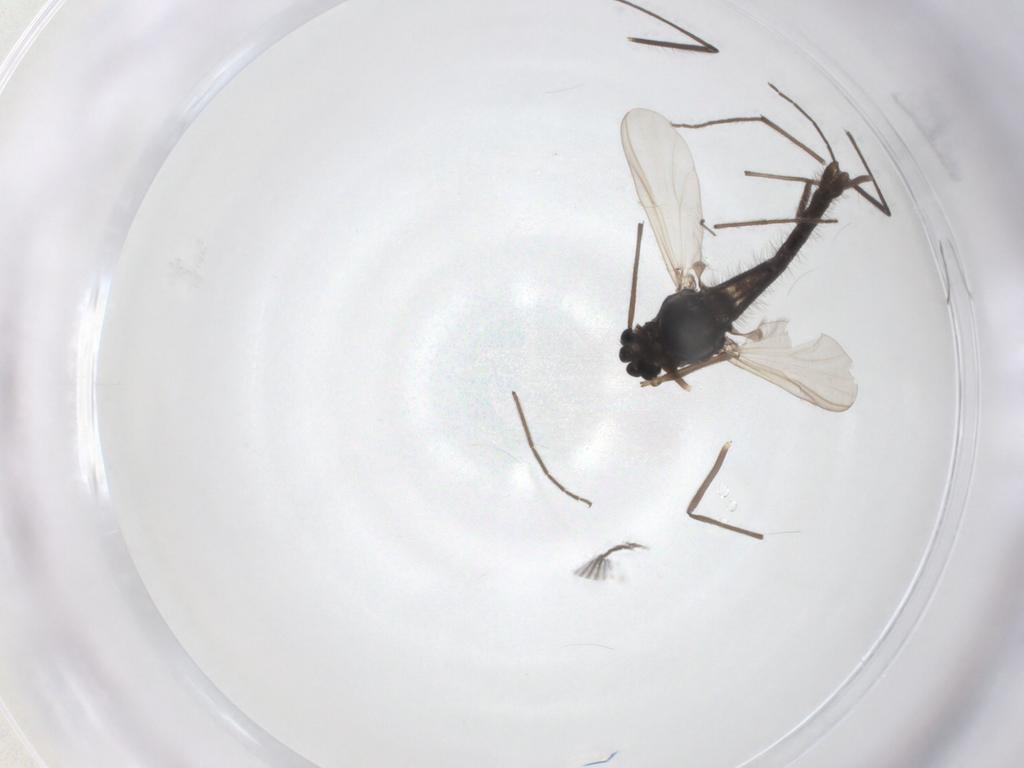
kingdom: Animalia
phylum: Arthropoda
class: Insecta
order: Diptera
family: Chironomidae
